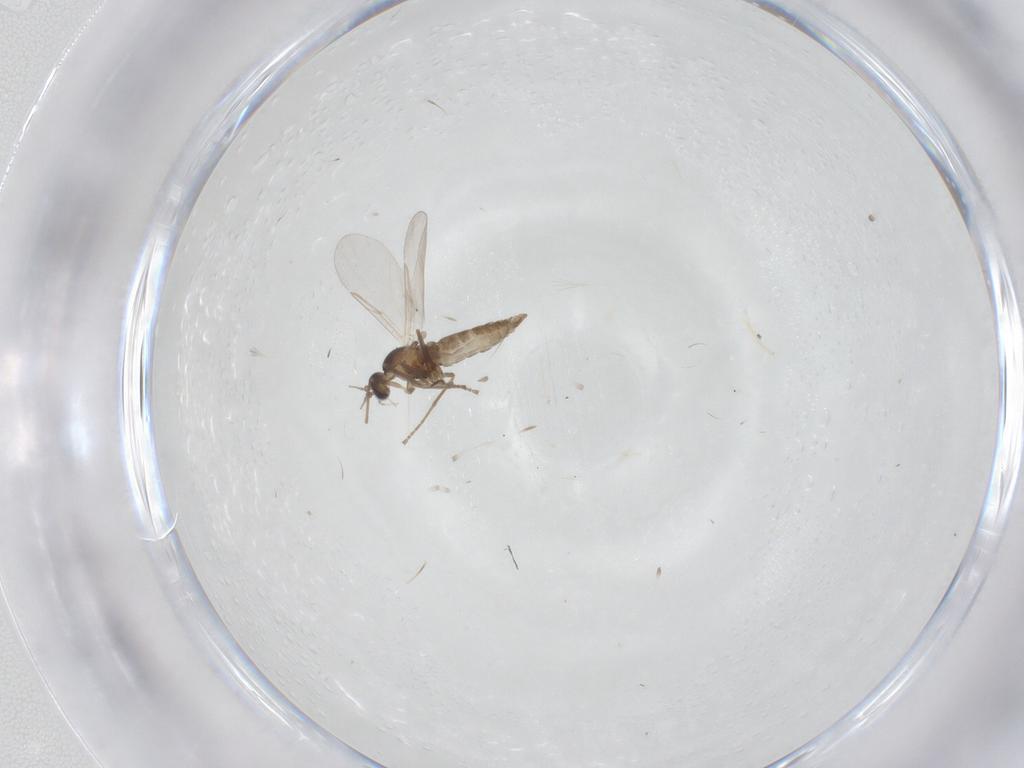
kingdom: Animalia
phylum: Arthropoda
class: Insecta
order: Diptera
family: Cecidomyiidae
